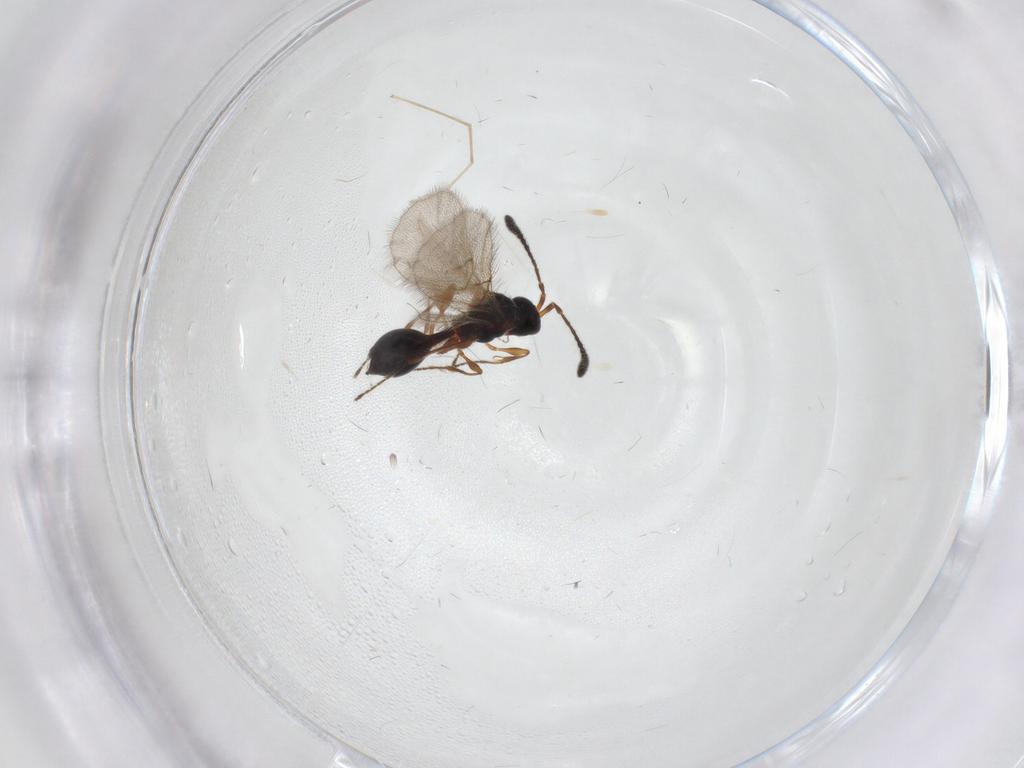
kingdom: Animalia
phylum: Arthropoda
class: Insecta
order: Hymenoptera
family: Diapriidae
